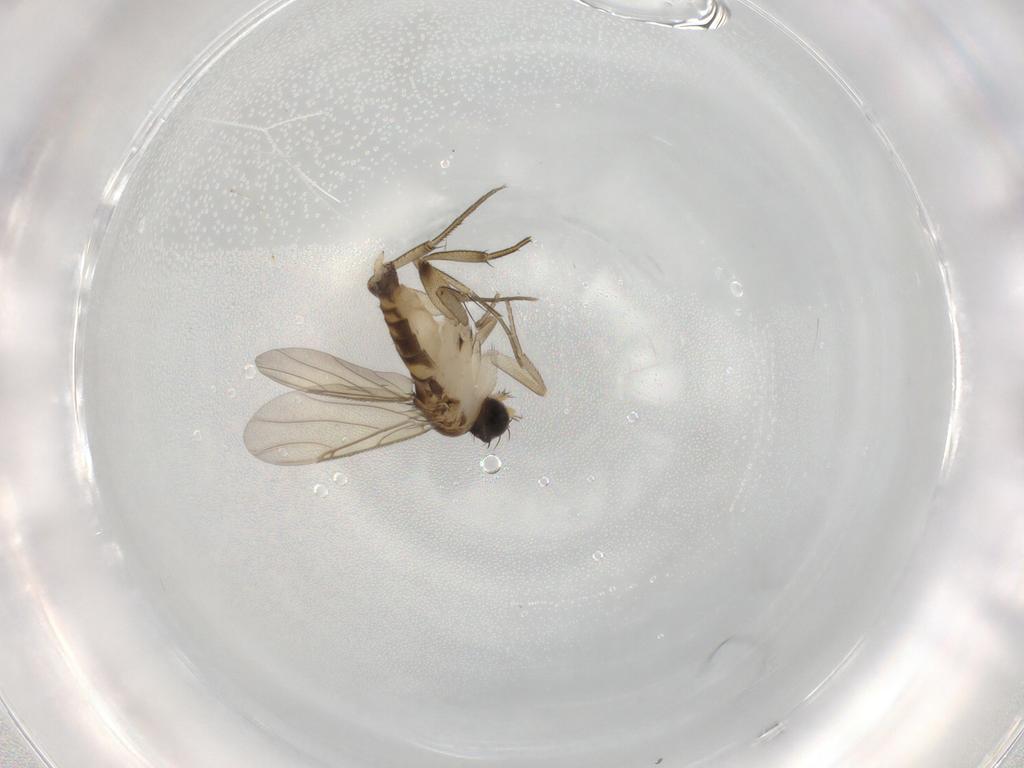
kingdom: Animalia
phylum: Arthropoda
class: Insecta
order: Diptera
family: Phoridae
